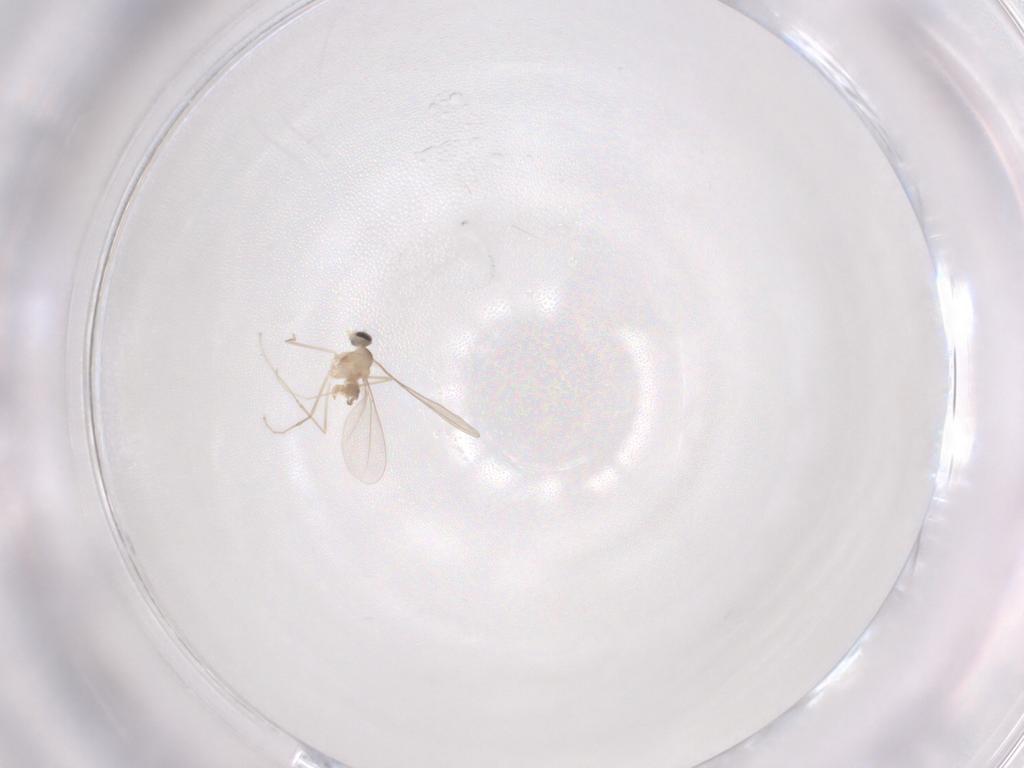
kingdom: Animalia
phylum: Arthropoda
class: Insecta
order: Diptera
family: Cecidomyiidae
